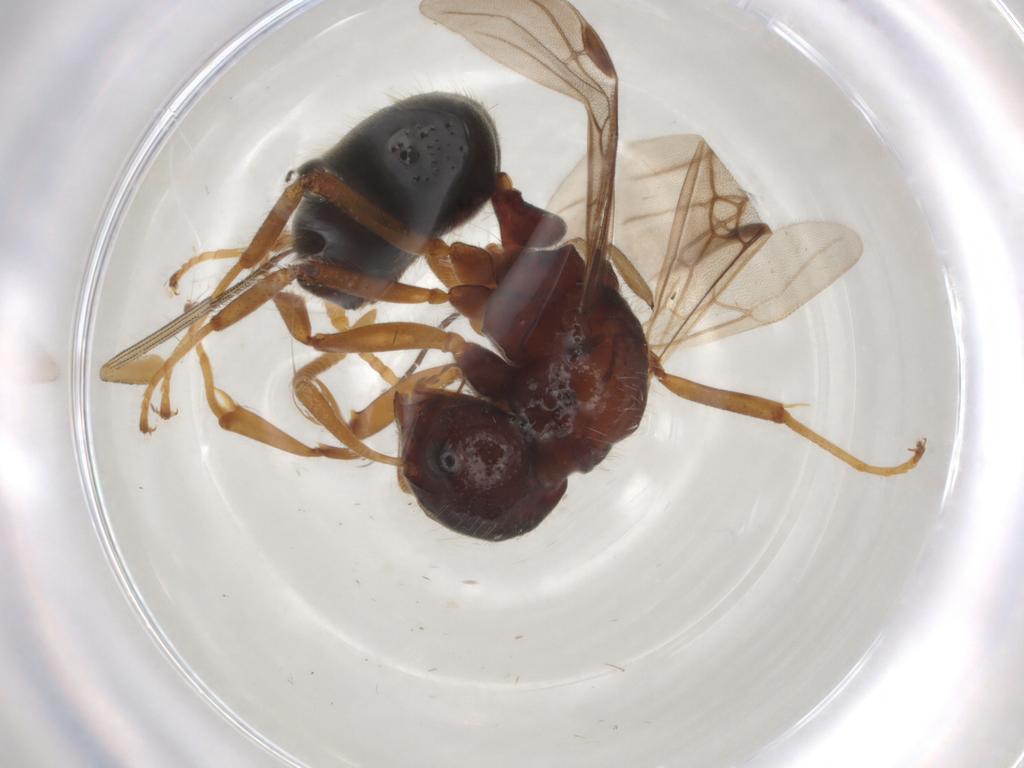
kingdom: Animalia
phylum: Arthropoda
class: Insecta
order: Hymenoptera
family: Formicidae
